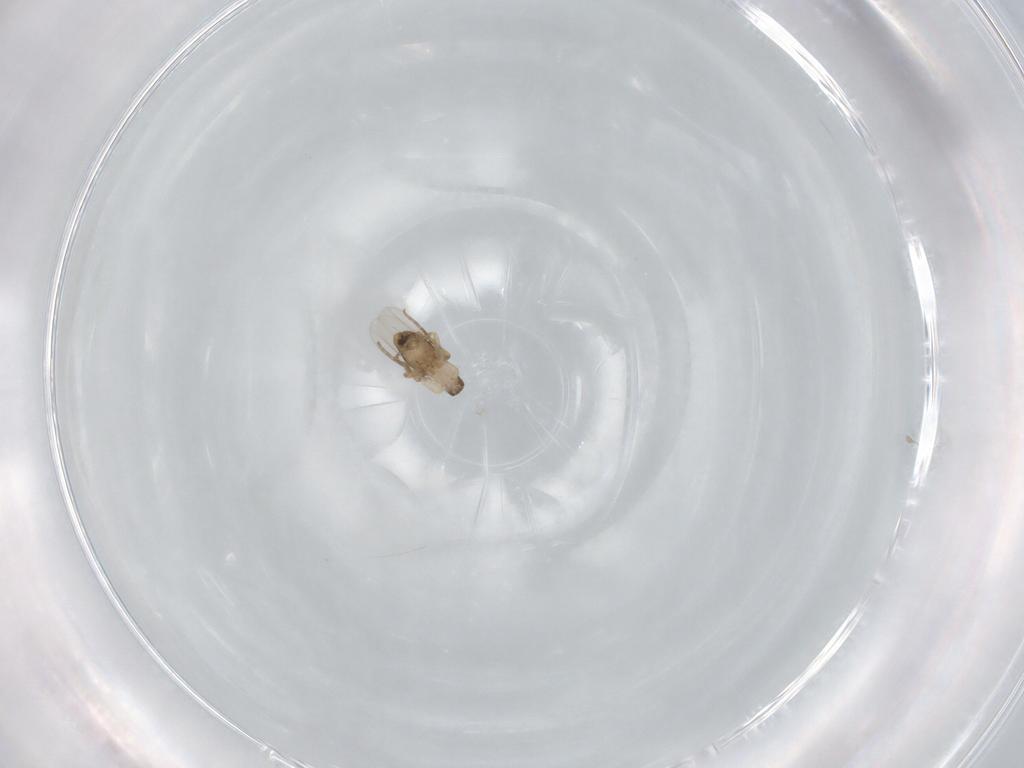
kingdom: Animalia
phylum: Arthropoda
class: Insecta
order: Diptera
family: Phoridae
